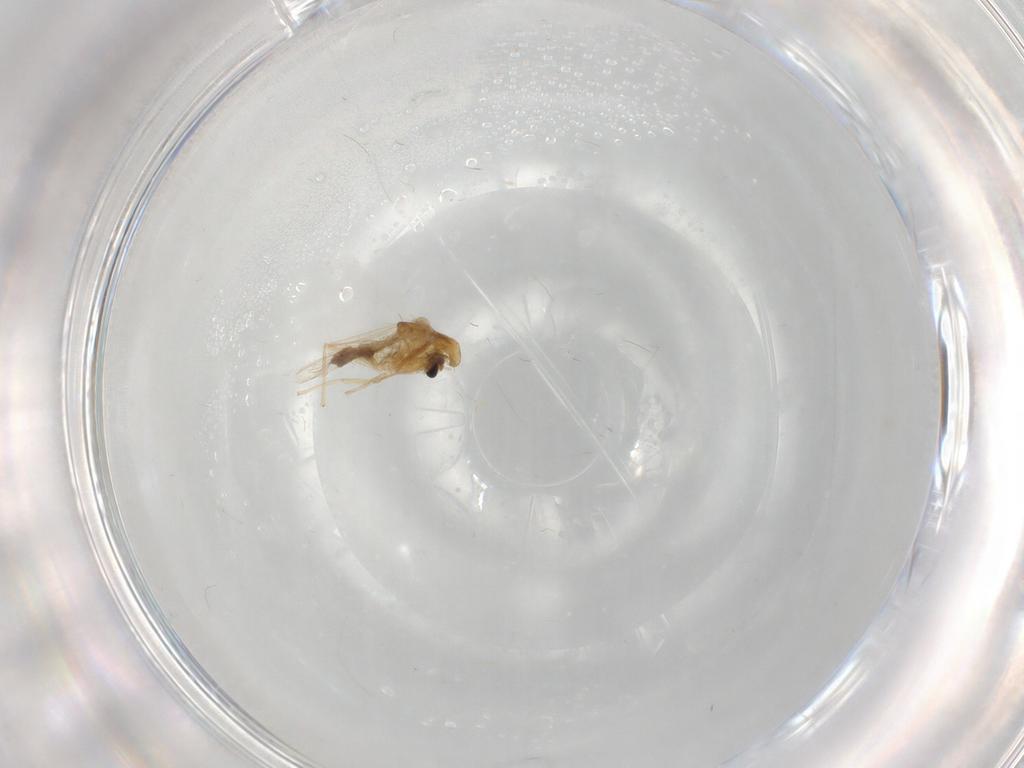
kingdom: Animalia
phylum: Arthropoda
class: Insecta
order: Diptera
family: Chironomidae
